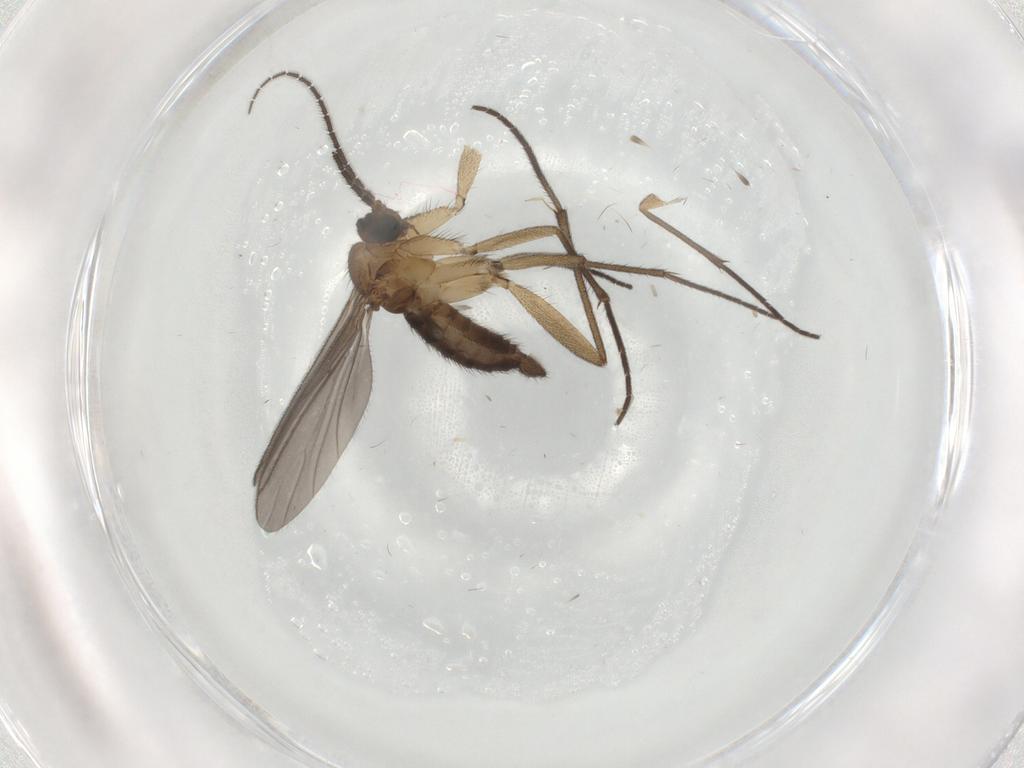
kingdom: Animalia
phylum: Arthropoda
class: Insecta
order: Diptera
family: Sciaridae
